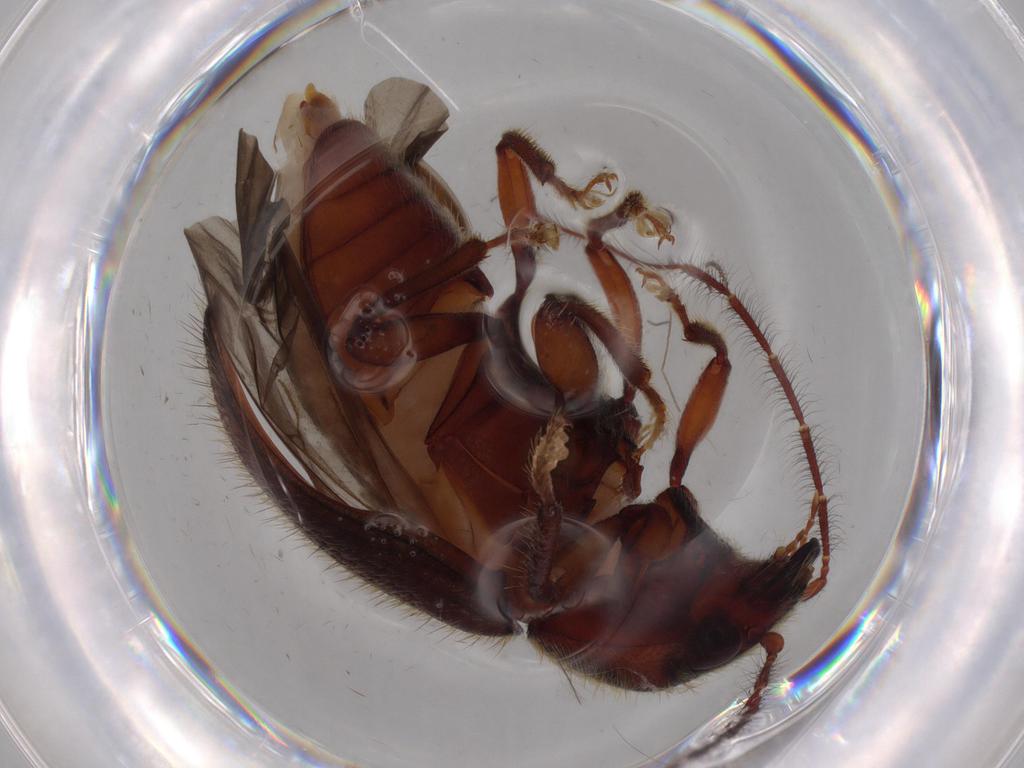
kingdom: Animalia
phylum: Arthropoda
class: Insecta
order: Coleoptera
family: Artematopodidae
